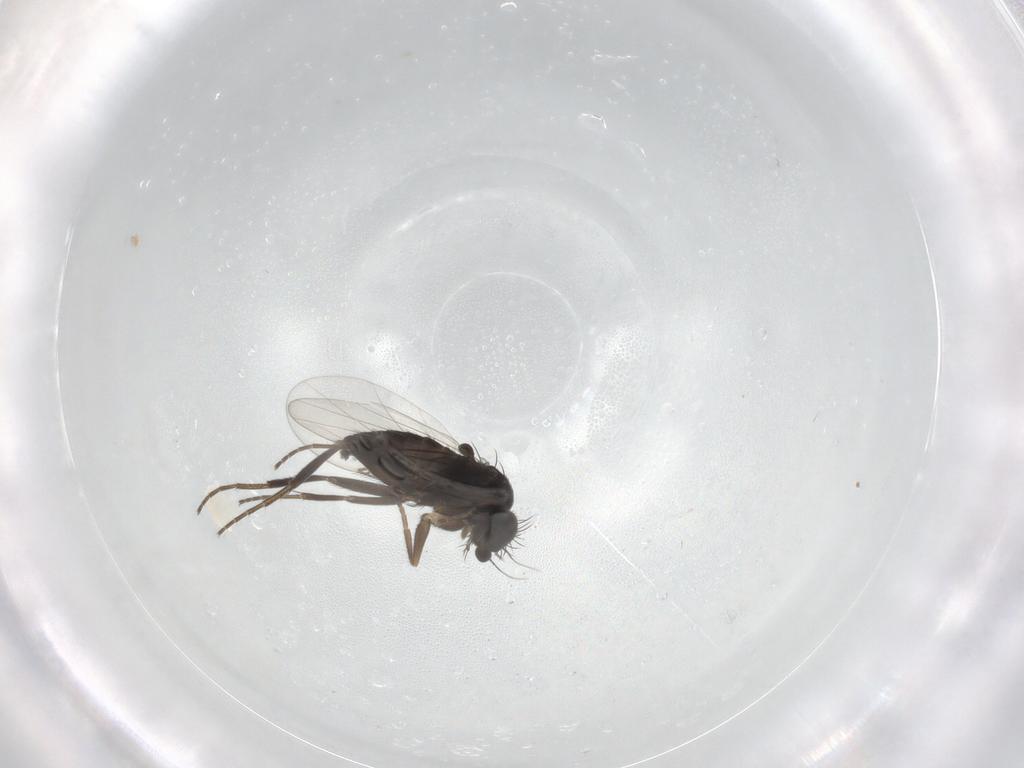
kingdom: Animalia
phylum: Arthropoda
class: Insecta
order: Diptera
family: Phoridae
